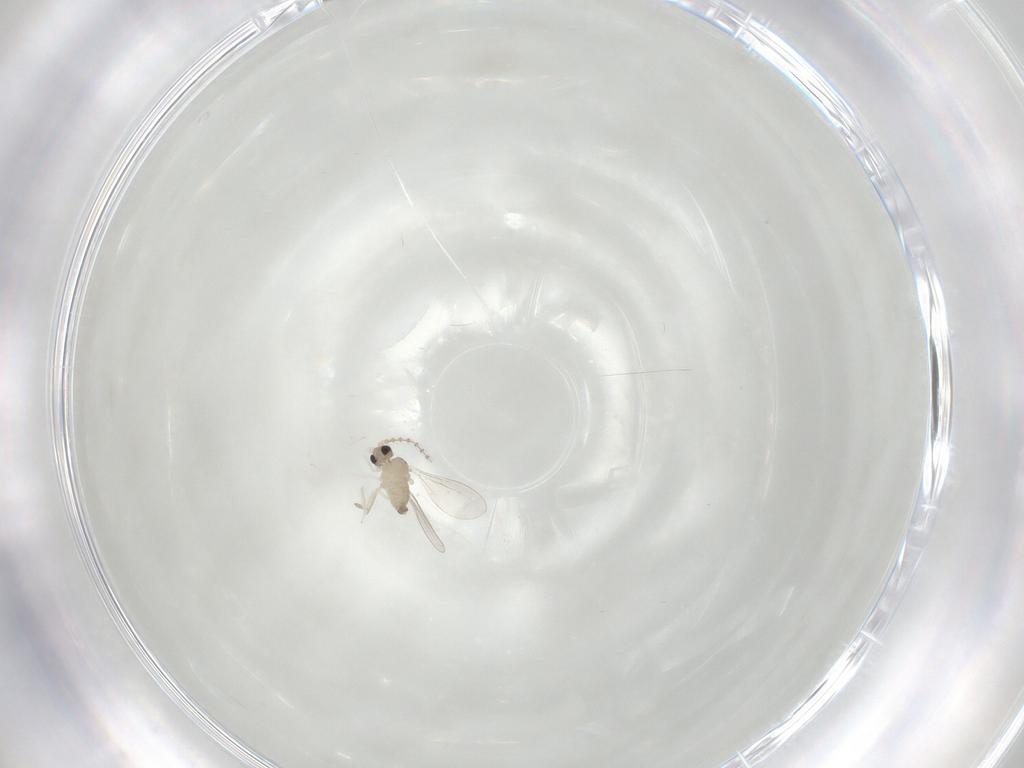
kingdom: Animalia
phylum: Arthropoda
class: Insecta
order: Diptera
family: Cecidomyiidae
